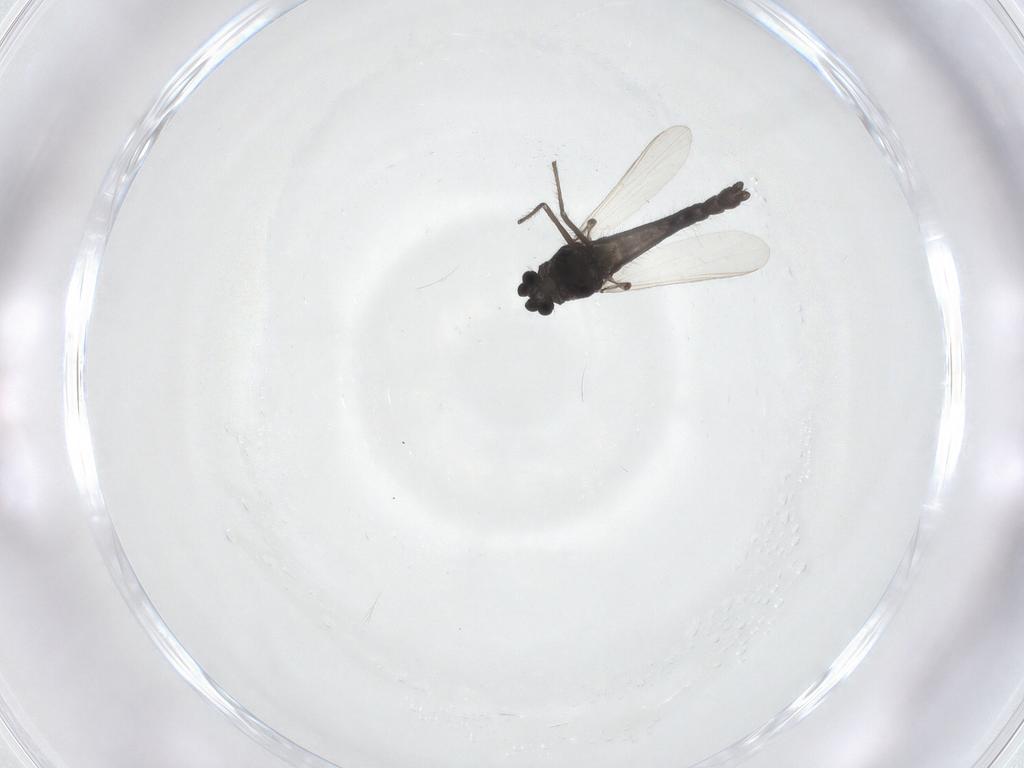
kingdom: Animalia
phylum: Arthropoda
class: Insecta
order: Diptera
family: Chironomidae
